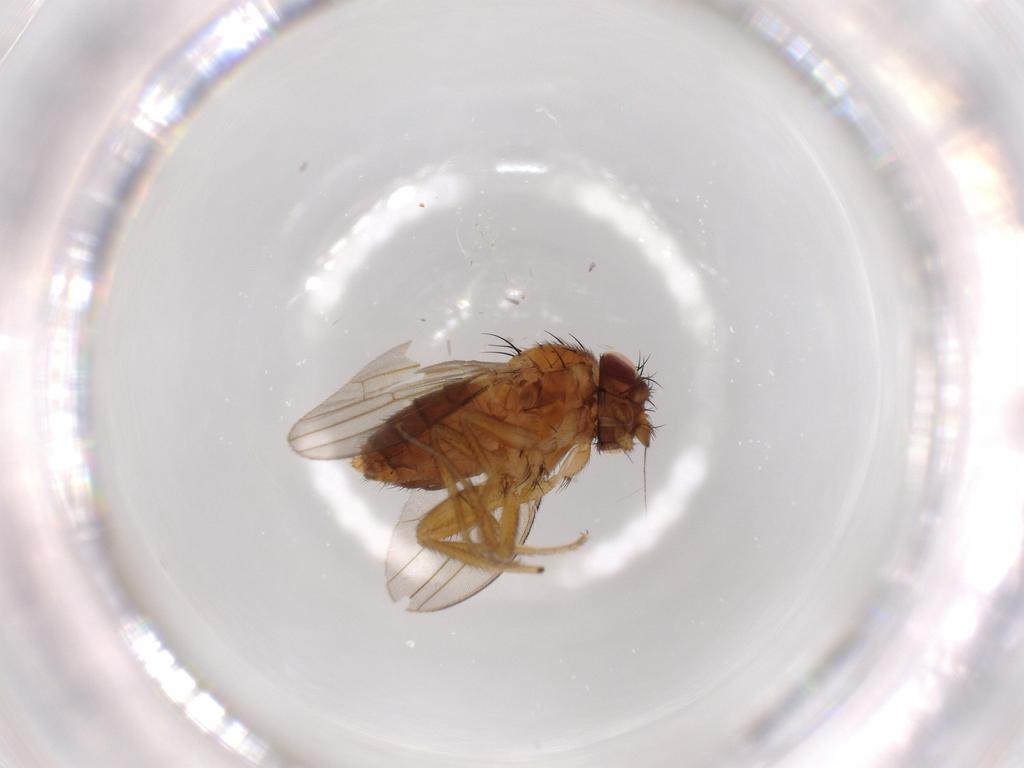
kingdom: Animalia
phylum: Arthropoda
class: Insecta
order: Diptera
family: Milichiidae
